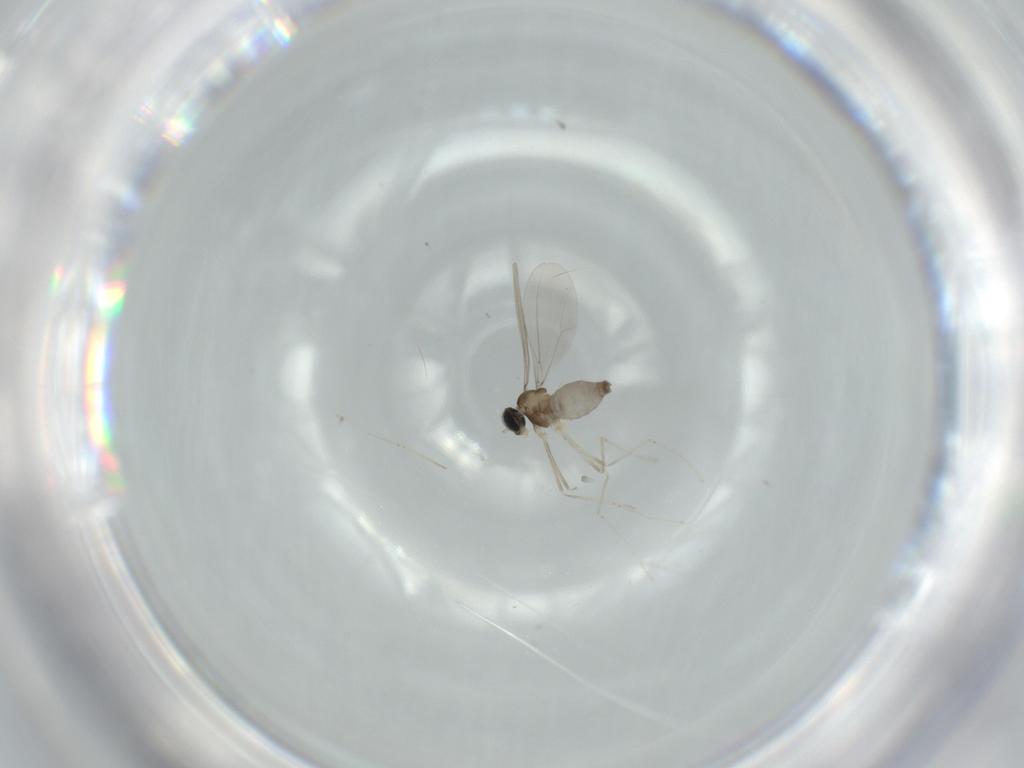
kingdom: Animalia
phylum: Arthropoda
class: Insecta
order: Diptera
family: Cecidomyiidae
